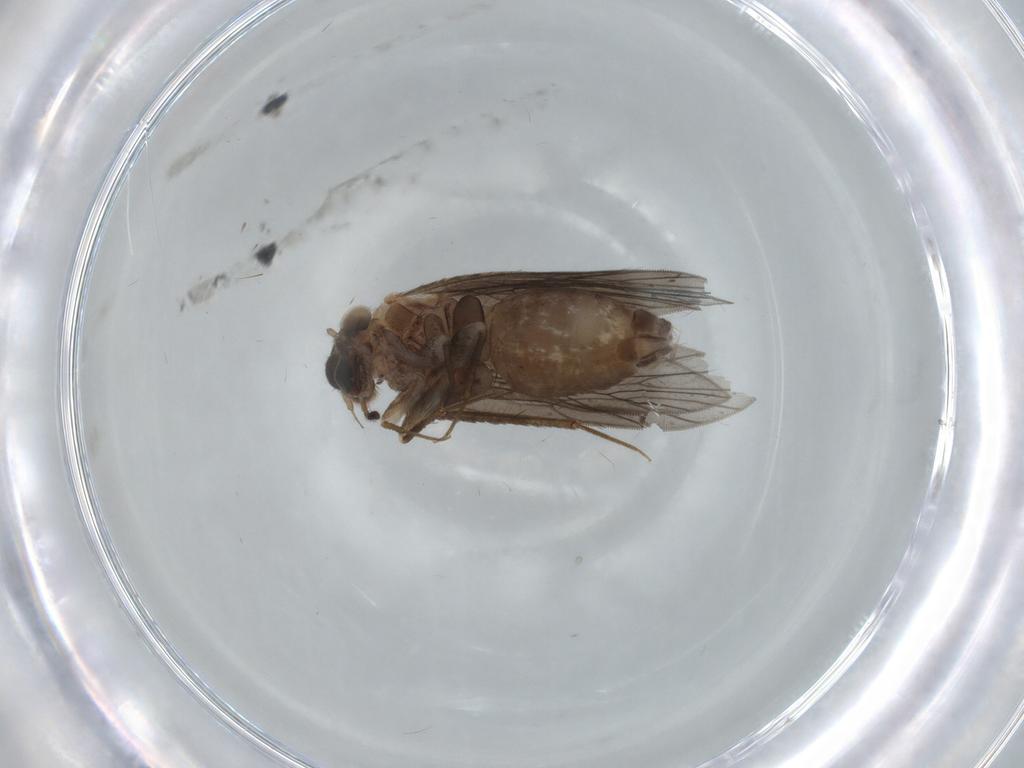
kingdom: Animalia
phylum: Arthropoda
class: Insecta
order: Psocodea
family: Lepidopsocidae
